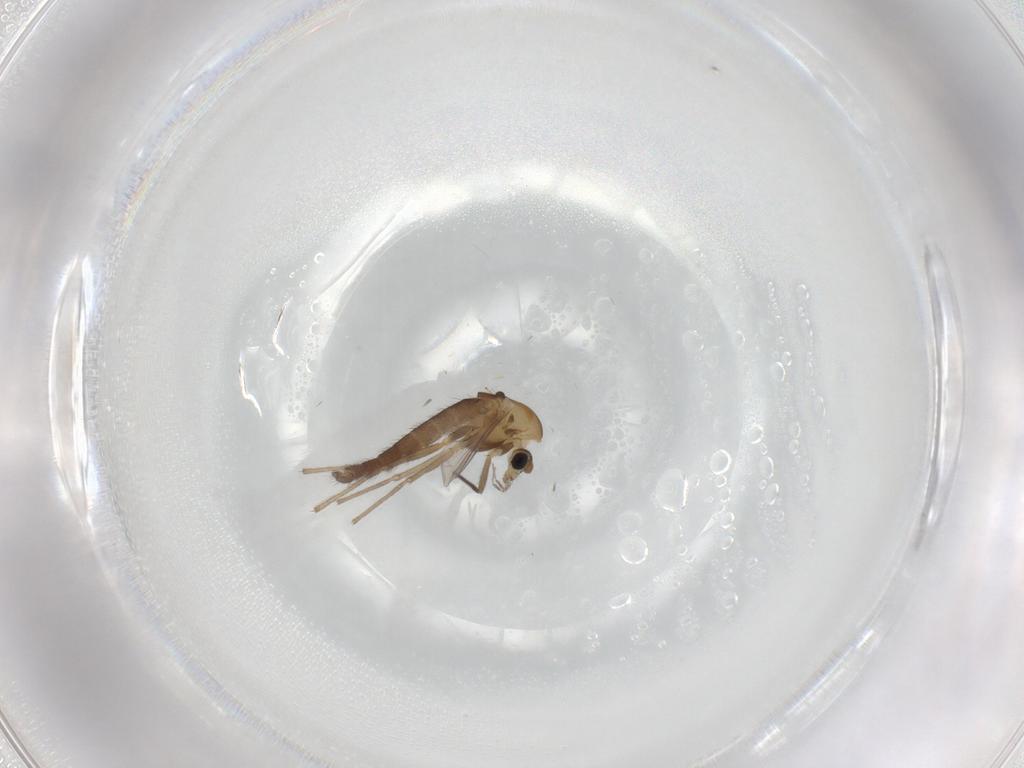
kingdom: Animalia
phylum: Arthropoda
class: Insecta
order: Diptera
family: Chironomidae
